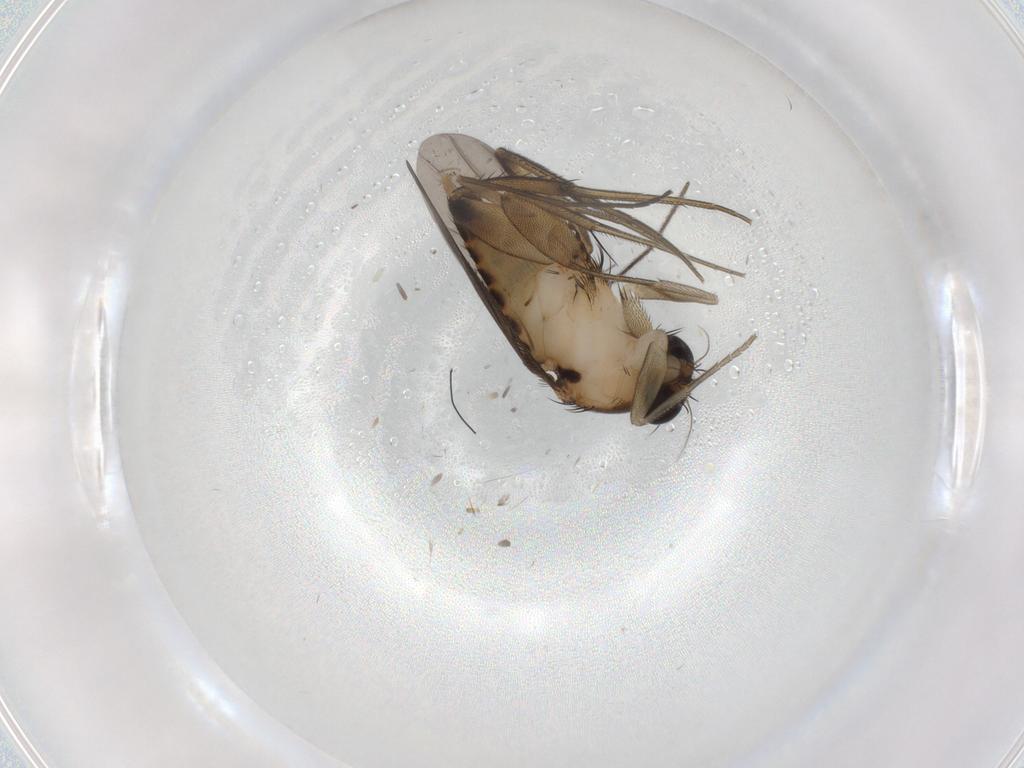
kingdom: Animalia
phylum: Arthropoda
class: Insecta
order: Diptera
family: Phoridae
